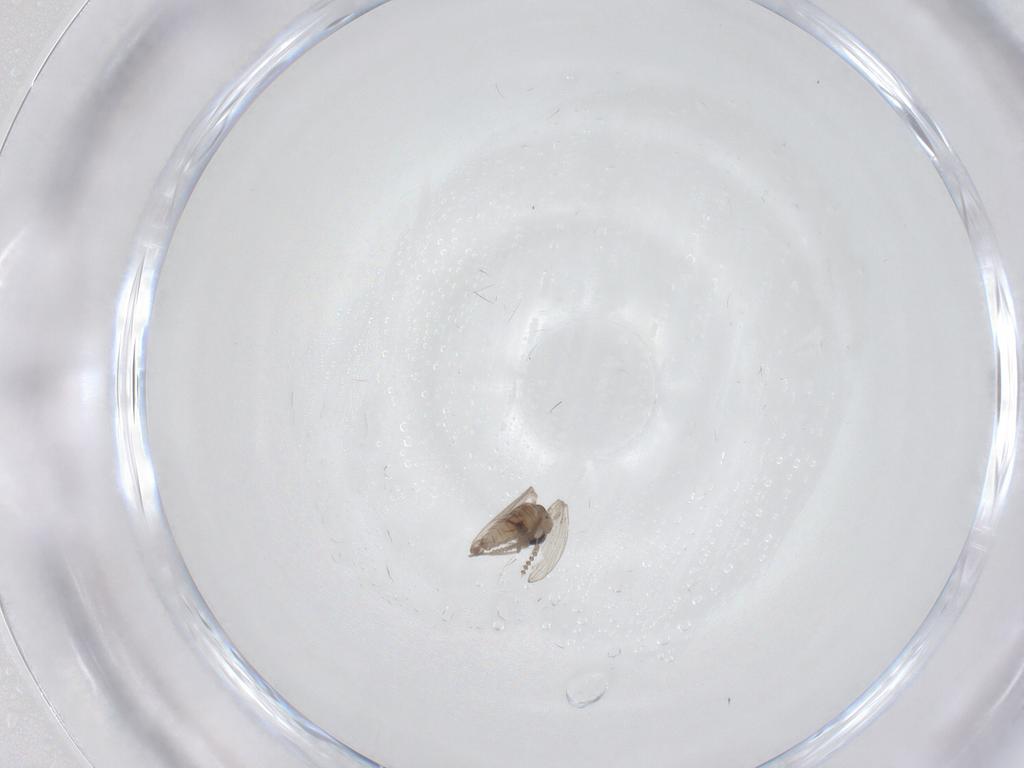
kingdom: Animalia
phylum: Arthropoda
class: Insecta
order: Diptera
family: Psychodidae
